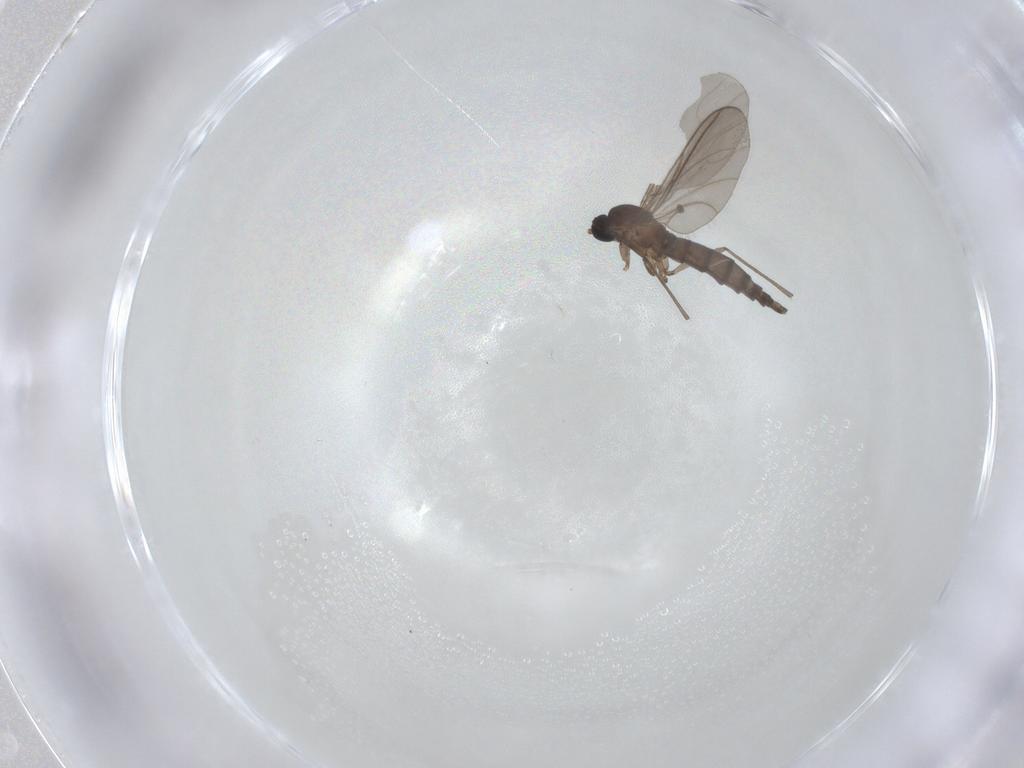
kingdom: Animalia
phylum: Arthropoda
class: Insecta
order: Diptera
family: Sciaridae
